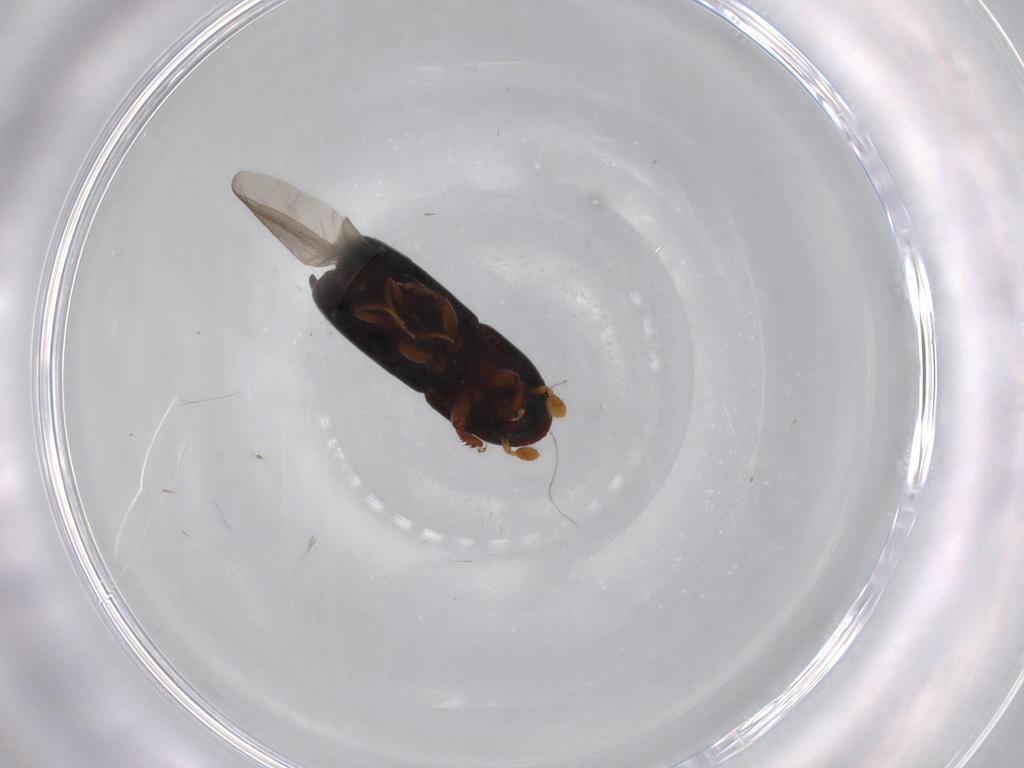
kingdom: Animalia
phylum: Arthropoda
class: Insecta
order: Coleoptera
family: Curculionidae
